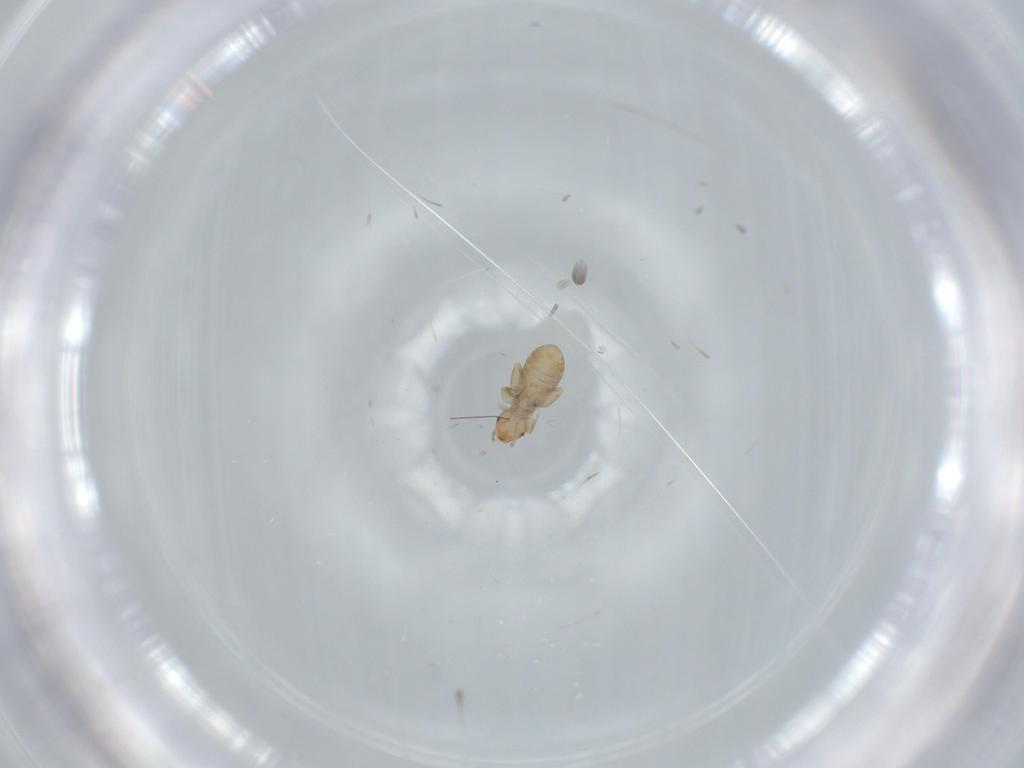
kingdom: Animalia
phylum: Arthropoda
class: Insecta
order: Psocodea
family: Liposcelididae
